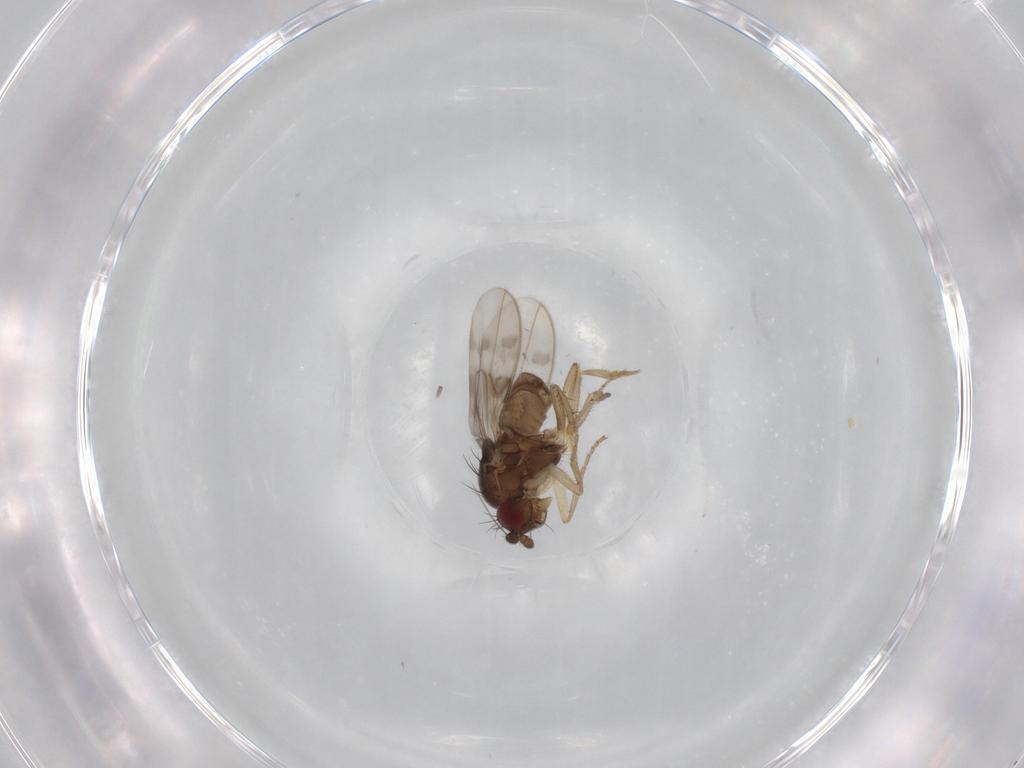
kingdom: Animalia
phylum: Arthropoda
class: Insecta
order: Diptera
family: Sphaeroceridae
